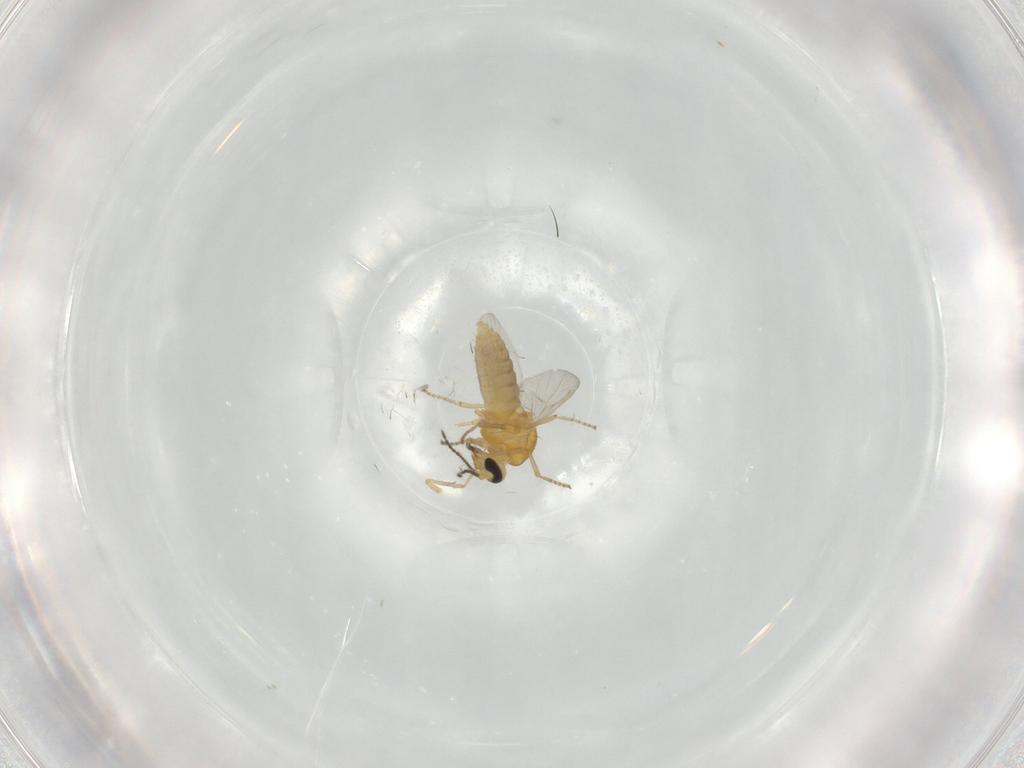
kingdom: Animalia
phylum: Arthropoda
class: Insecta
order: Diptera
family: Ceratopogonidae
